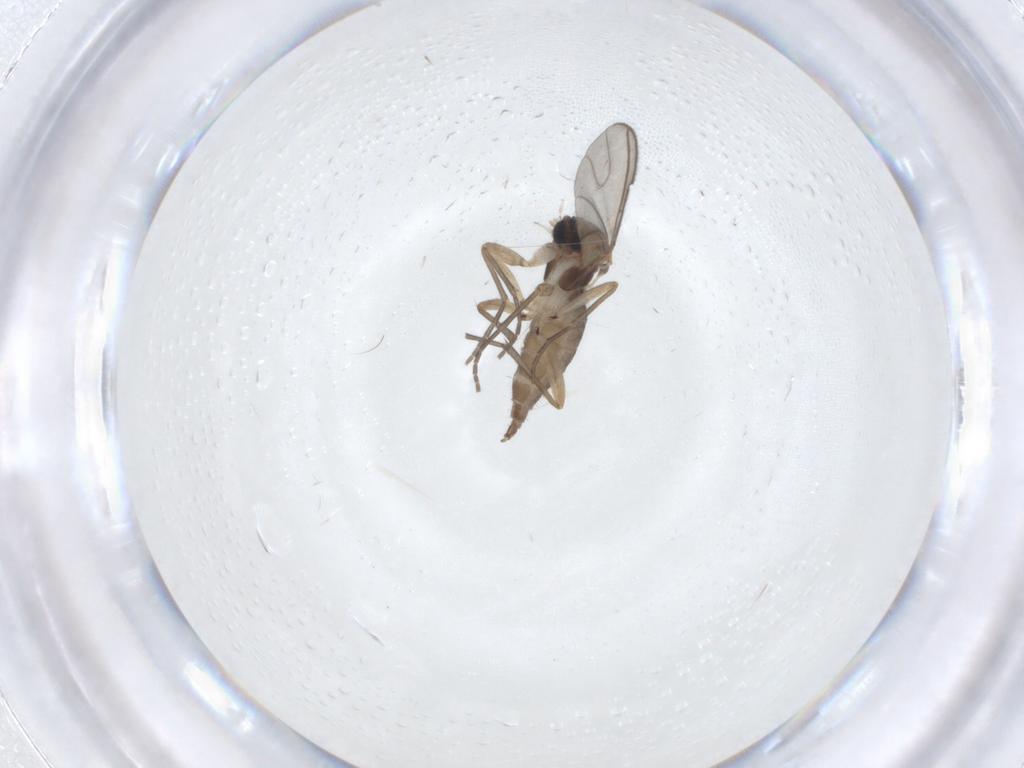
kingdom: Animalia
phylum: Arthropoda
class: Insecta
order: Diptera
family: Sciaridae
